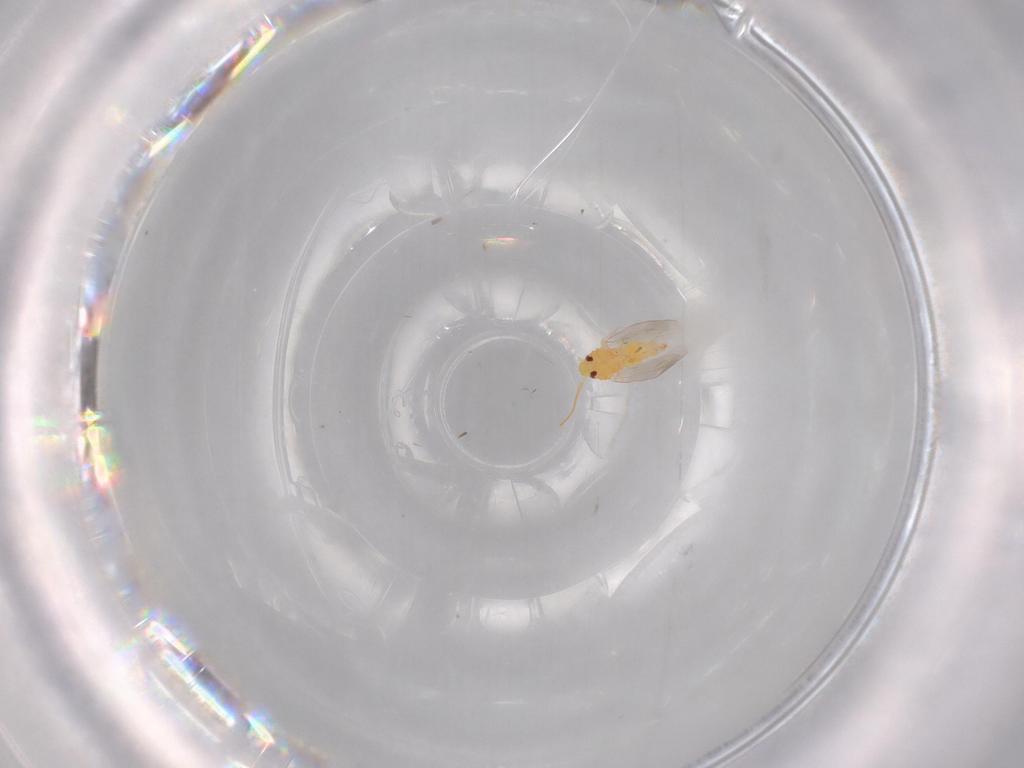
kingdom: Animalia
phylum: Arthropoda
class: Insecta
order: Hemiptera
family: Aleyrodidae
